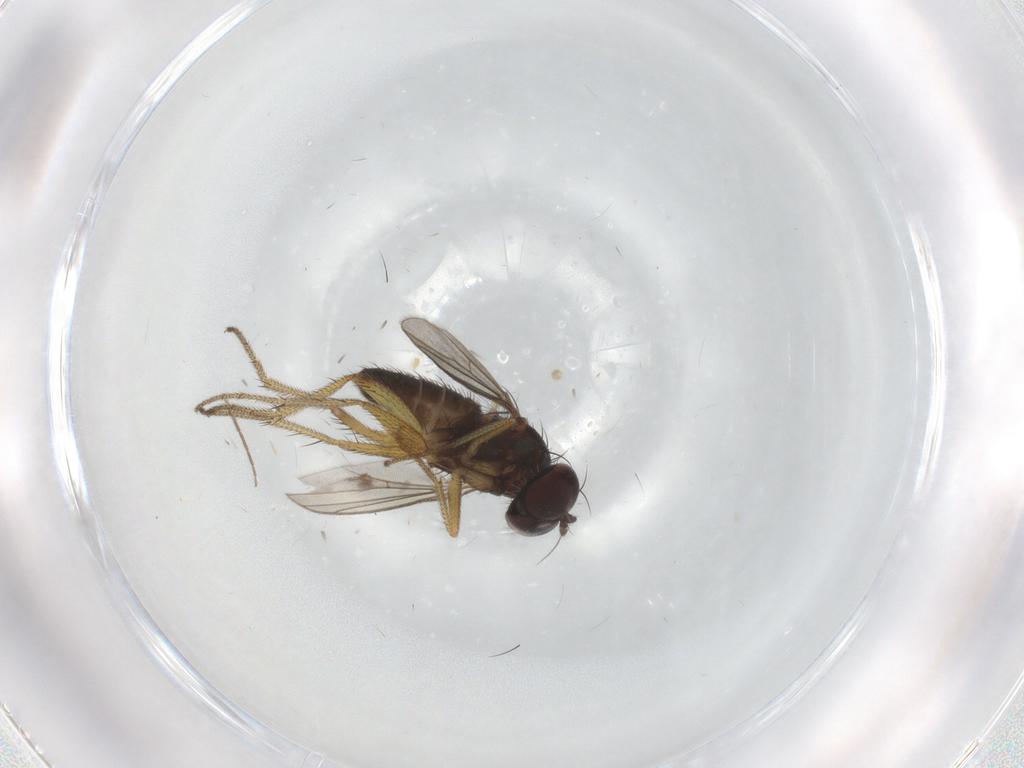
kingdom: Animalia
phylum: Arthropoda
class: Insecta
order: Diptera
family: Chironomidae
